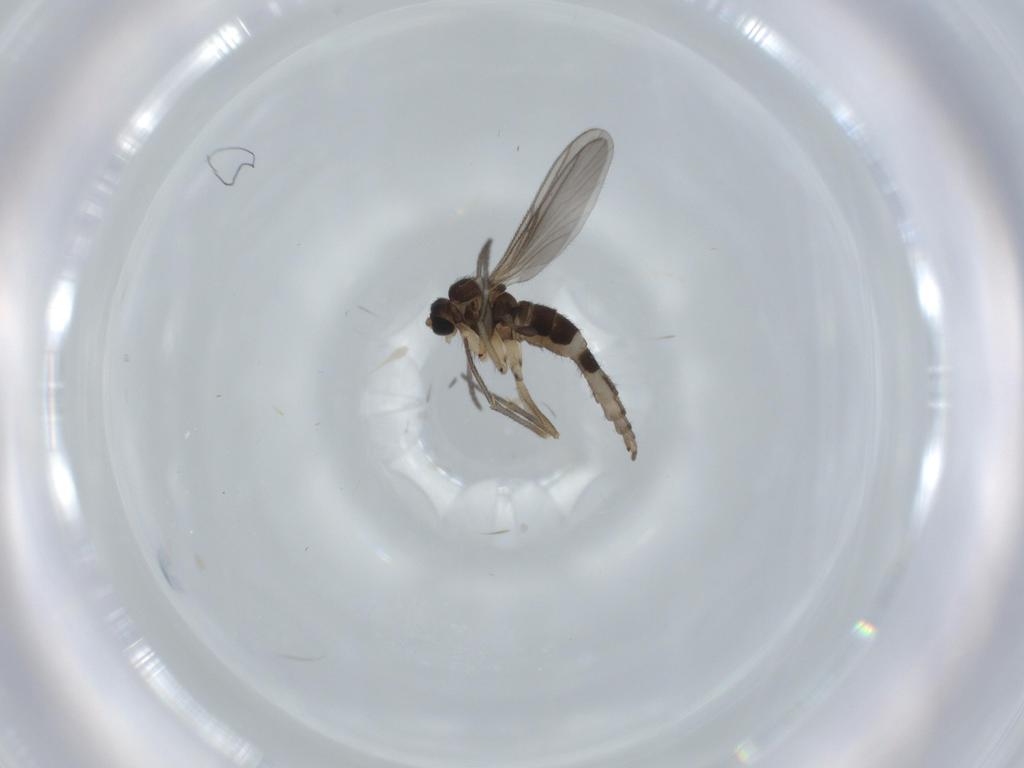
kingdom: Animalia
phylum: Arthropoda
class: Insecta
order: Diptera
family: Sciaridae
